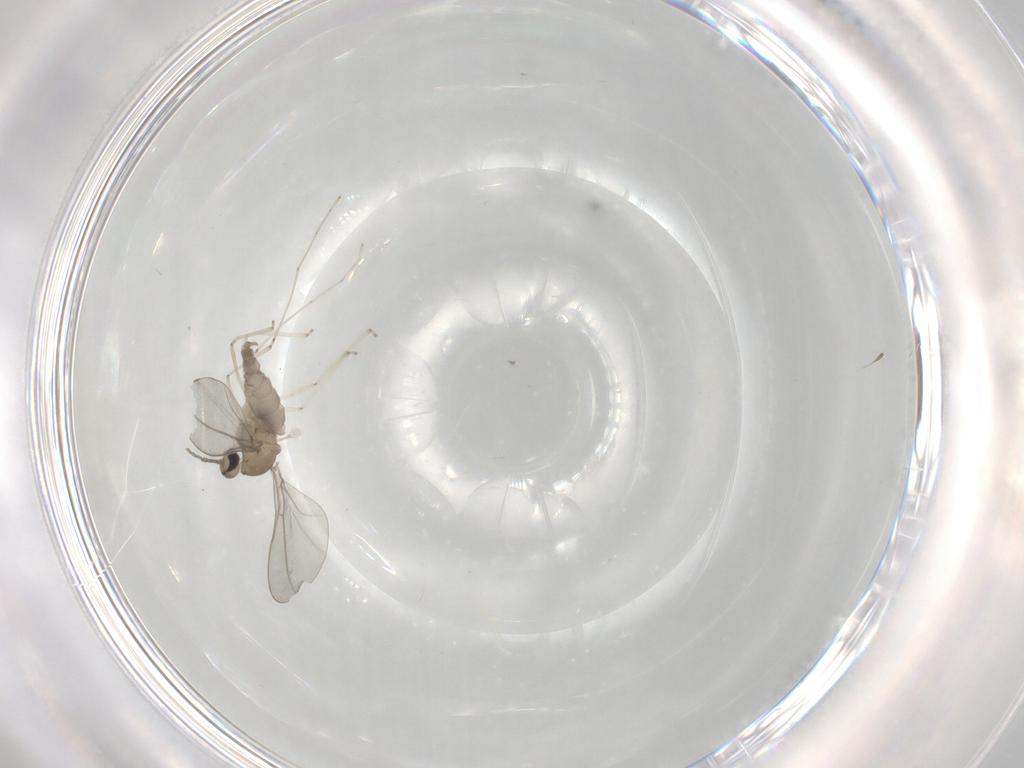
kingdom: Animalia
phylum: Arthropoda
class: Insecta
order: Diptera
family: Cecidomyiidae
